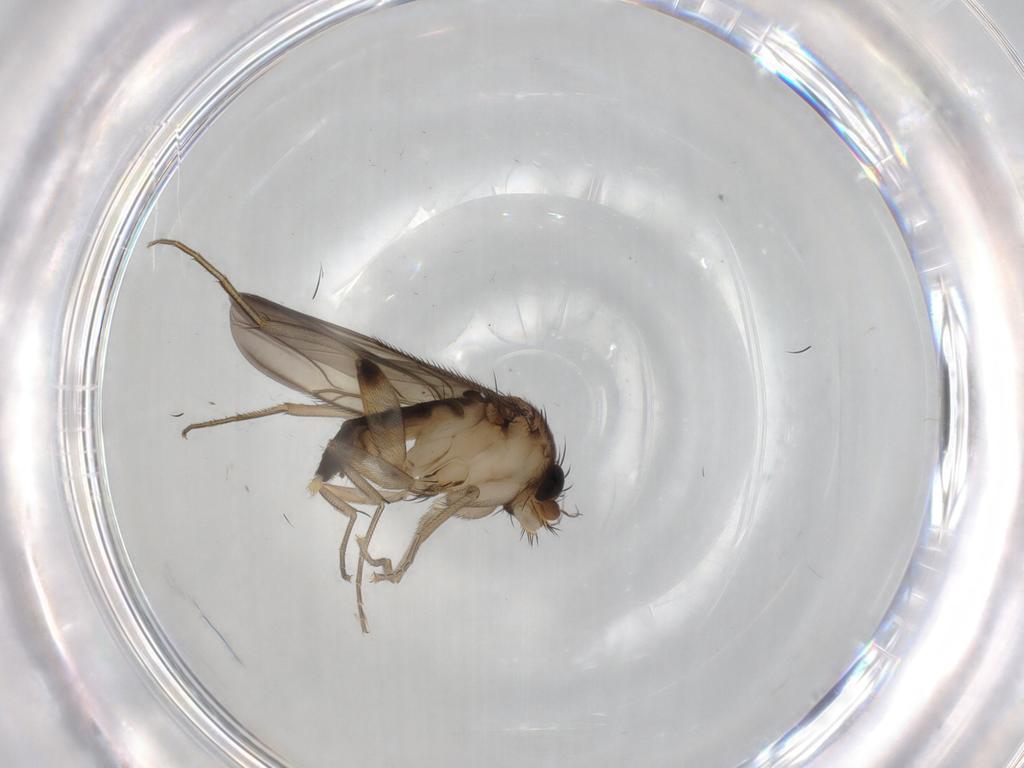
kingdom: Animalia
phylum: Arthropoda
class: Insecta
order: Diptera
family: Phoridae
